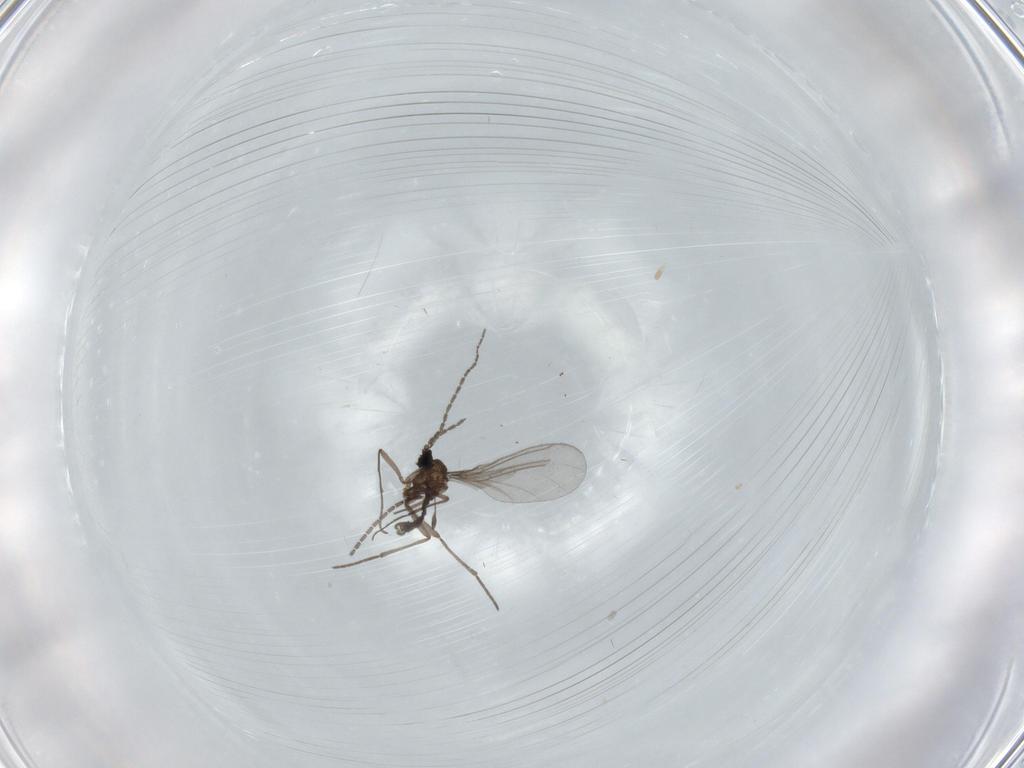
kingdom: Animalia
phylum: Arthropoda
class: Insecta
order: Diptera
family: Sciaridae
